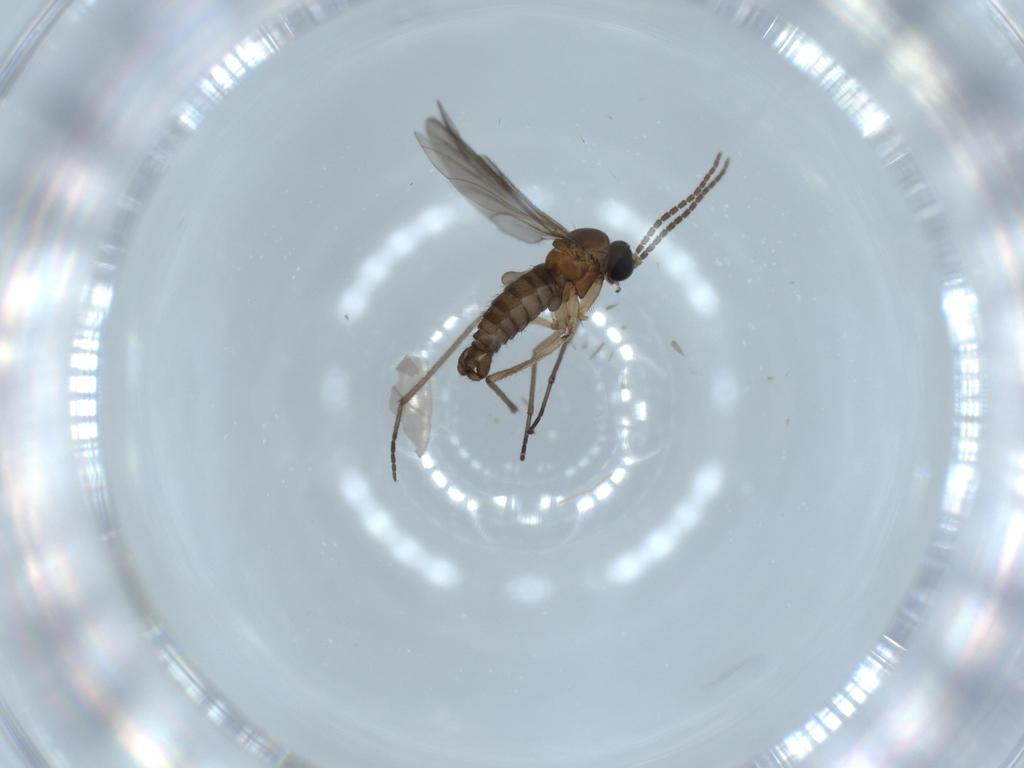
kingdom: Animalia
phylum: Arthropoda
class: Insecta
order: Diptera
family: Sciaridae
